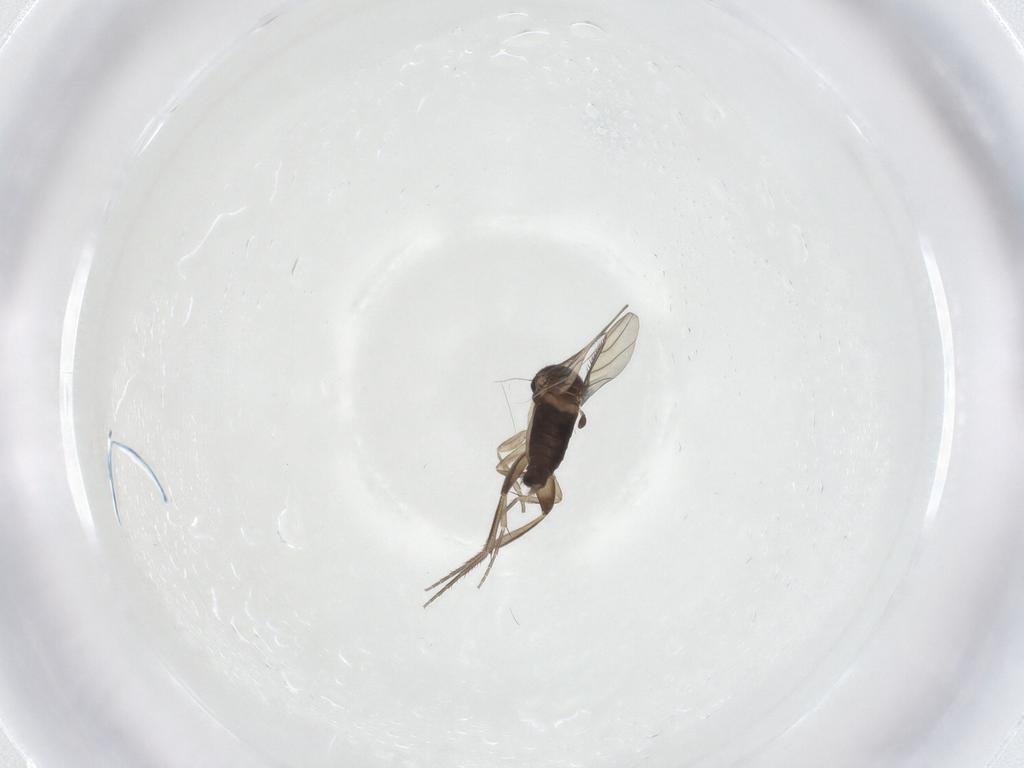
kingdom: Animalia
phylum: Arthropoda
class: Insecta
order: Diptera
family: Phoridae
